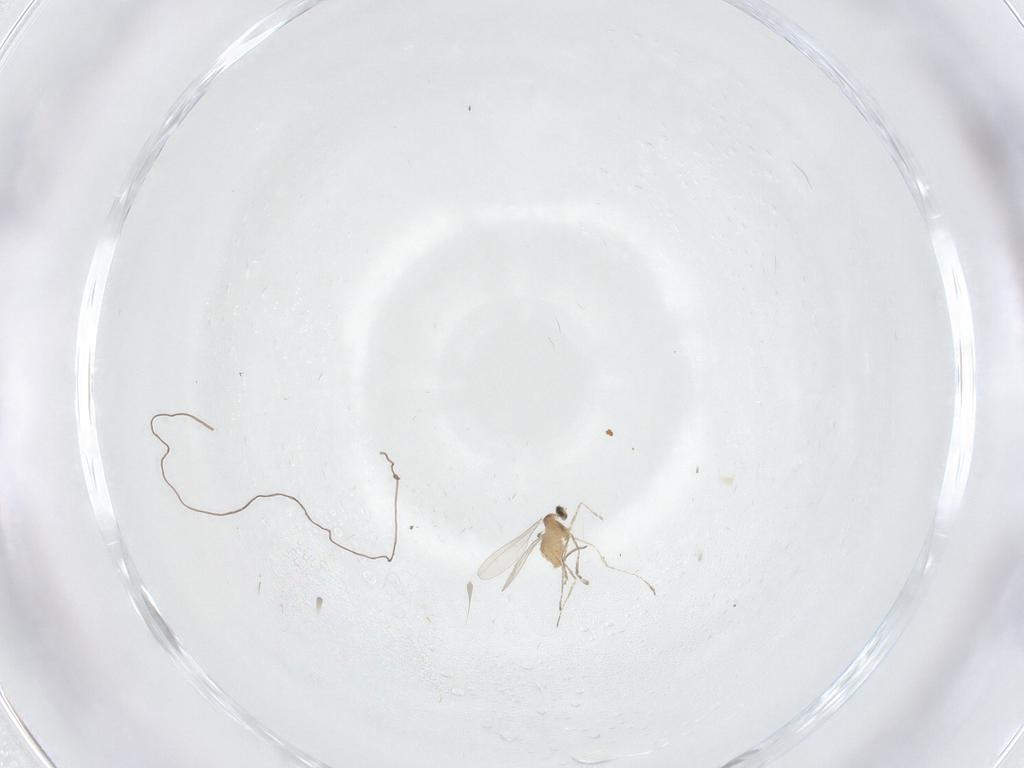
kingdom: Animalia
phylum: Arthropoda
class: Insecta
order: Diptera
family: Cecidomyiidae
